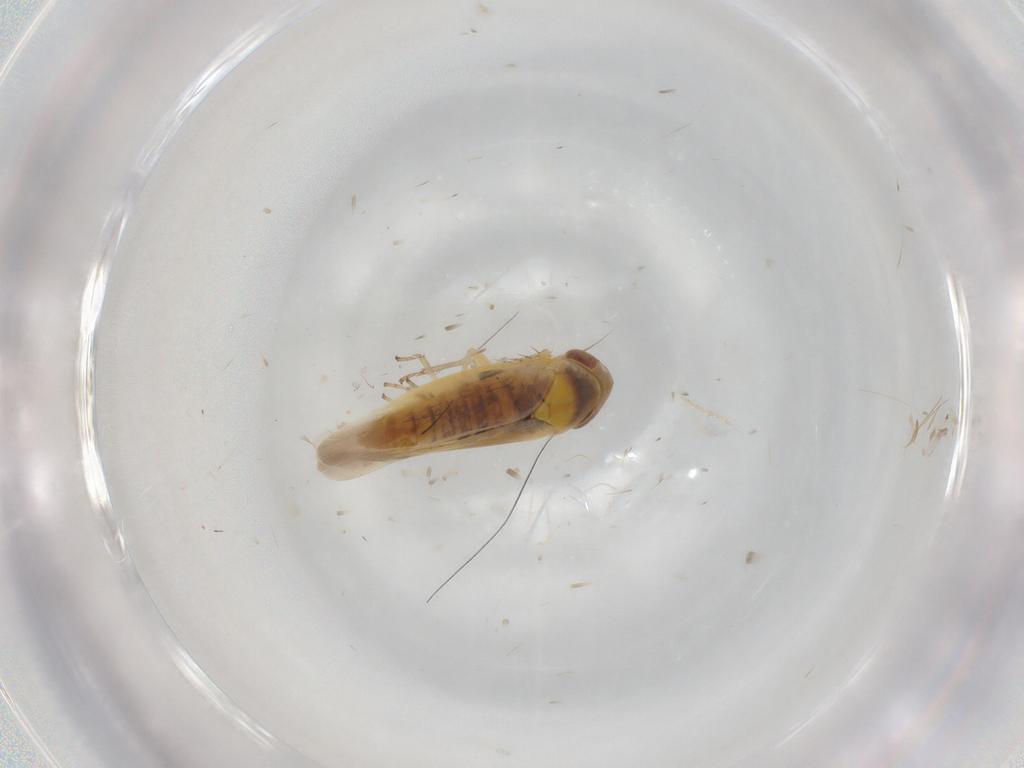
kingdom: Animalia
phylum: Arthropoda
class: Insecta
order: Hemiptera
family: Cicadellidae
